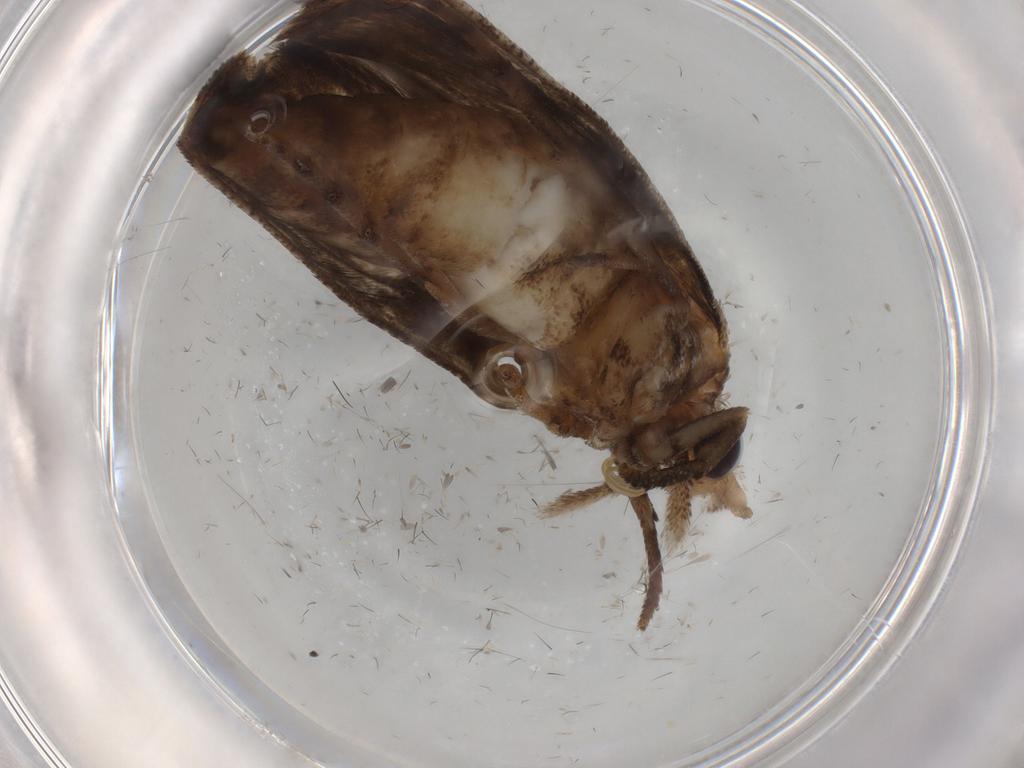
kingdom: Animalia
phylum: Arthropoda
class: Insecta
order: Lepidoptera
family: Yponomeutidae
